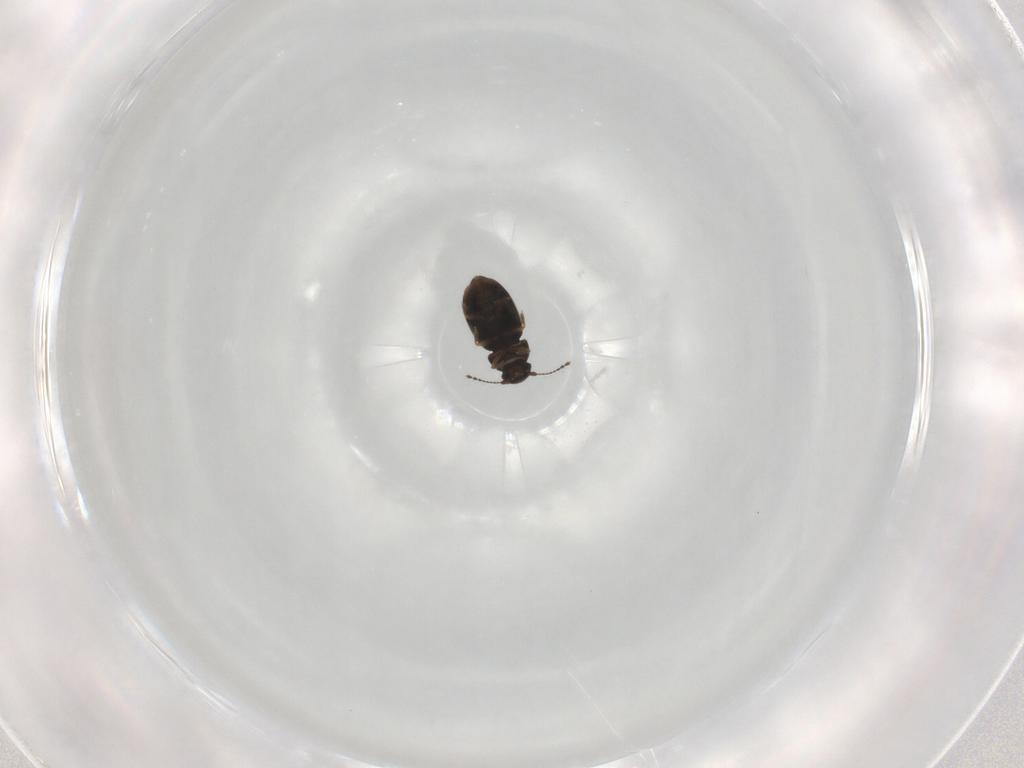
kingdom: Animalia
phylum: Arthropoda
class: Insecta
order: Coleoptera
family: Ptiliidae
